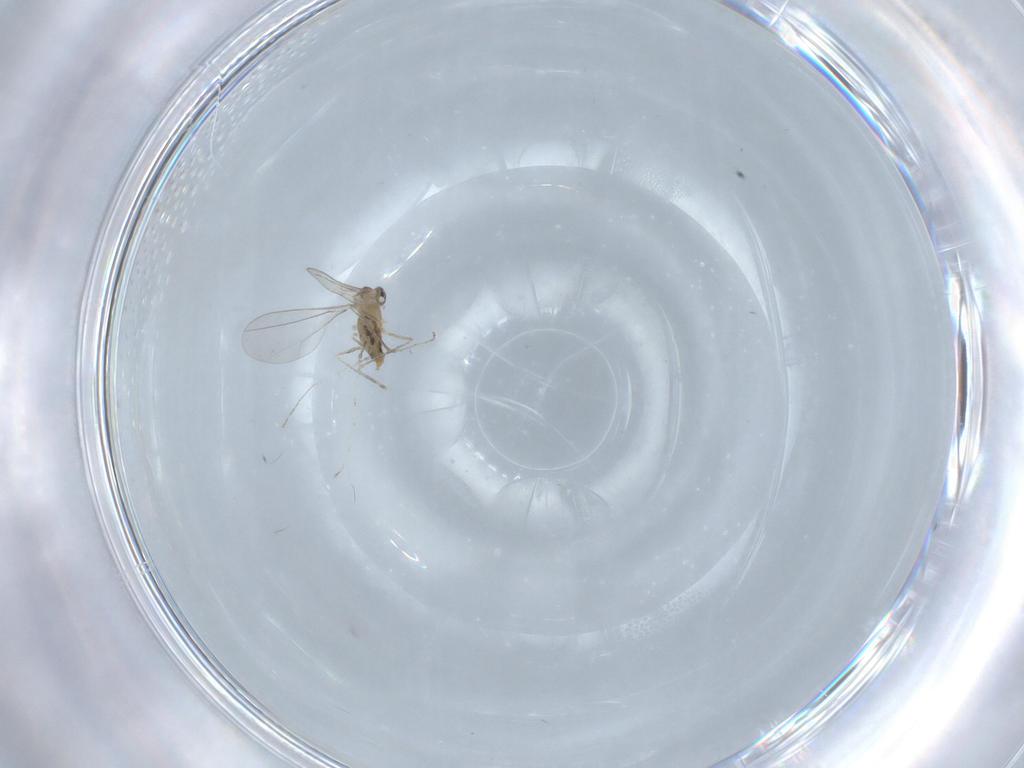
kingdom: Animalia
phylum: Arthropoda
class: Insecta
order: Diptera
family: Cecidomyiidae
